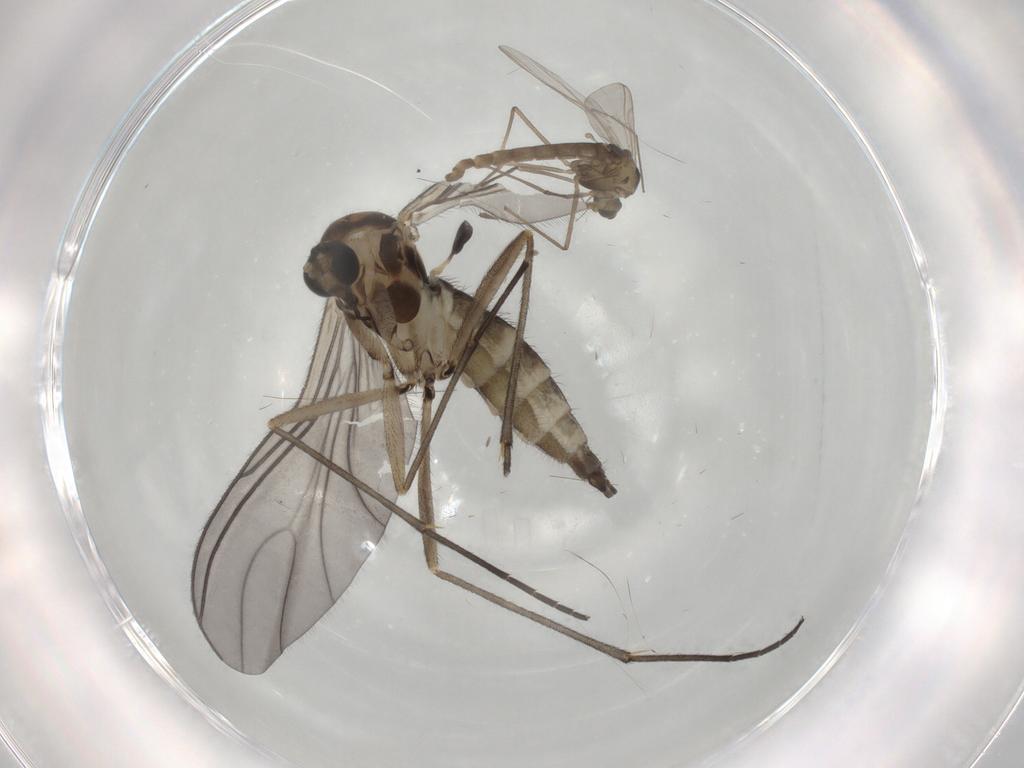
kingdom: Animalia
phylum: Arthropoda
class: Insecta
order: Diptera
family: Sciaridae
